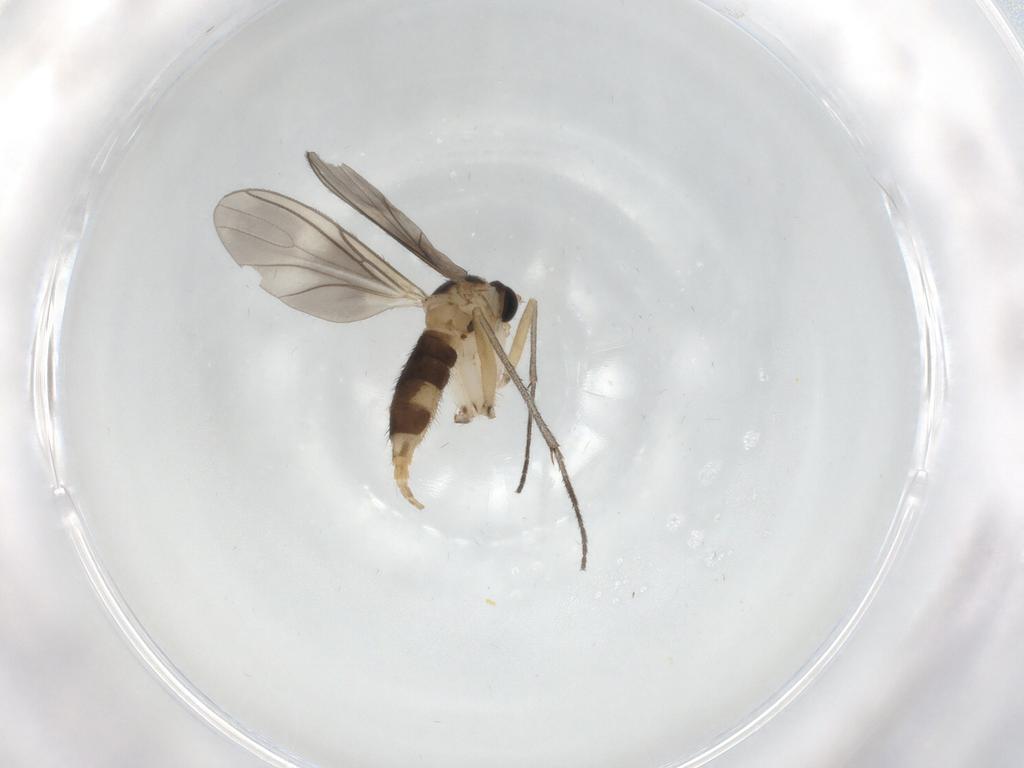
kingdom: Animalia
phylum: Arthropoda
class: Insecta
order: Diptera
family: Sciaridae
